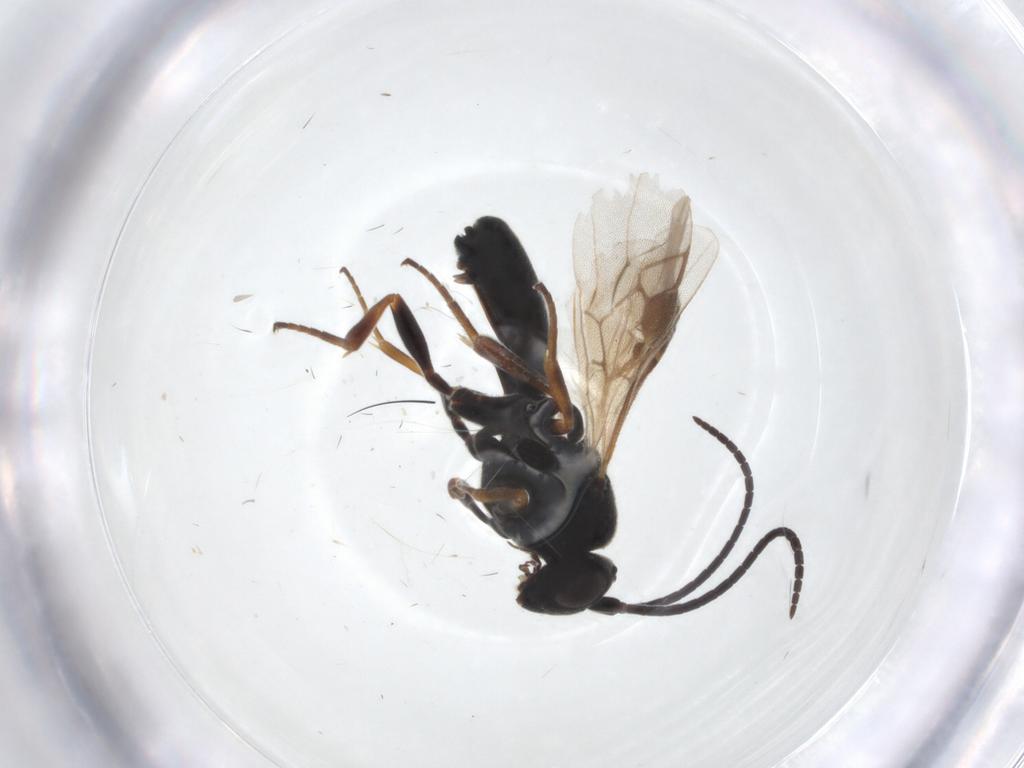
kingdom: Animalia
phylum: Arthropoda
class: Insecta
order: Hymenoptera
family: Braconidae
